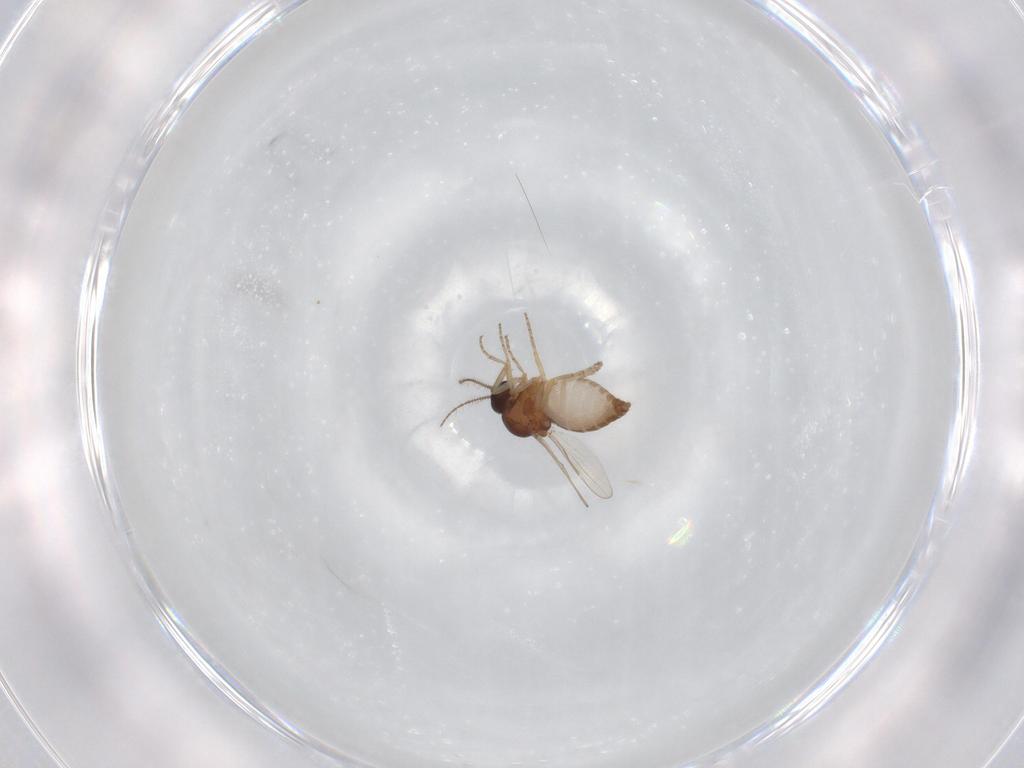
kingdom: Animalia
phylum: Arthropoda
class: Insecta
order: Diptera
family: Ceratopogonidae
